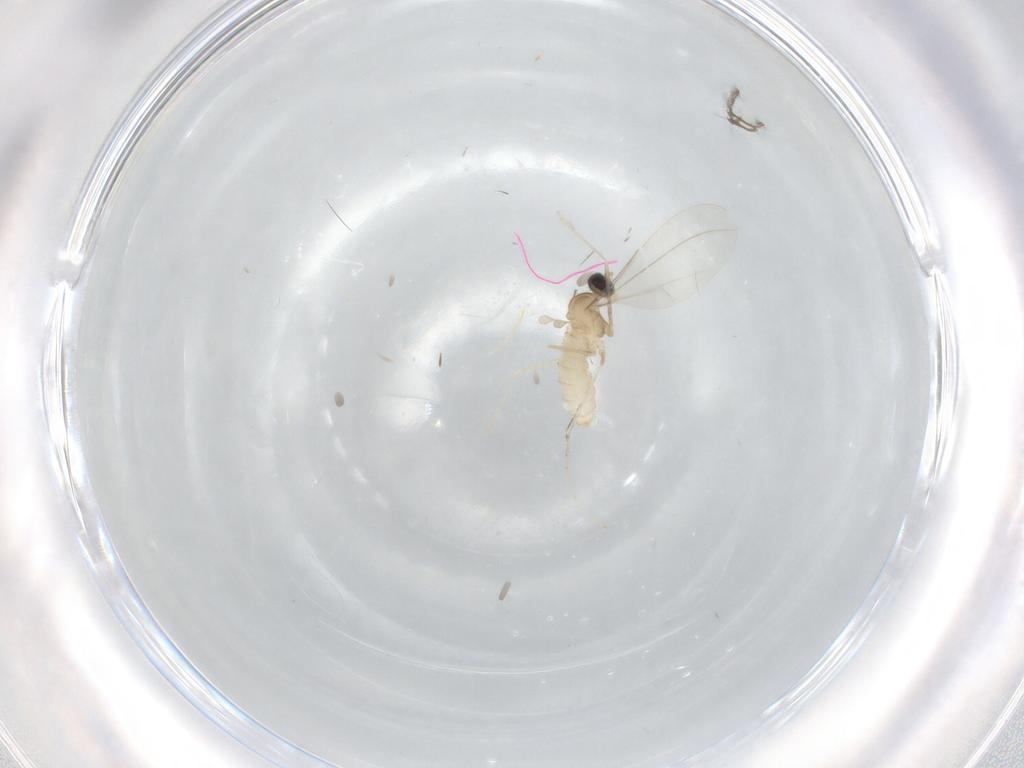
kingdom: Animalia
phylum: Arthropoda
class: Insecta
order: Diptera
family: Cecidomyiidae
